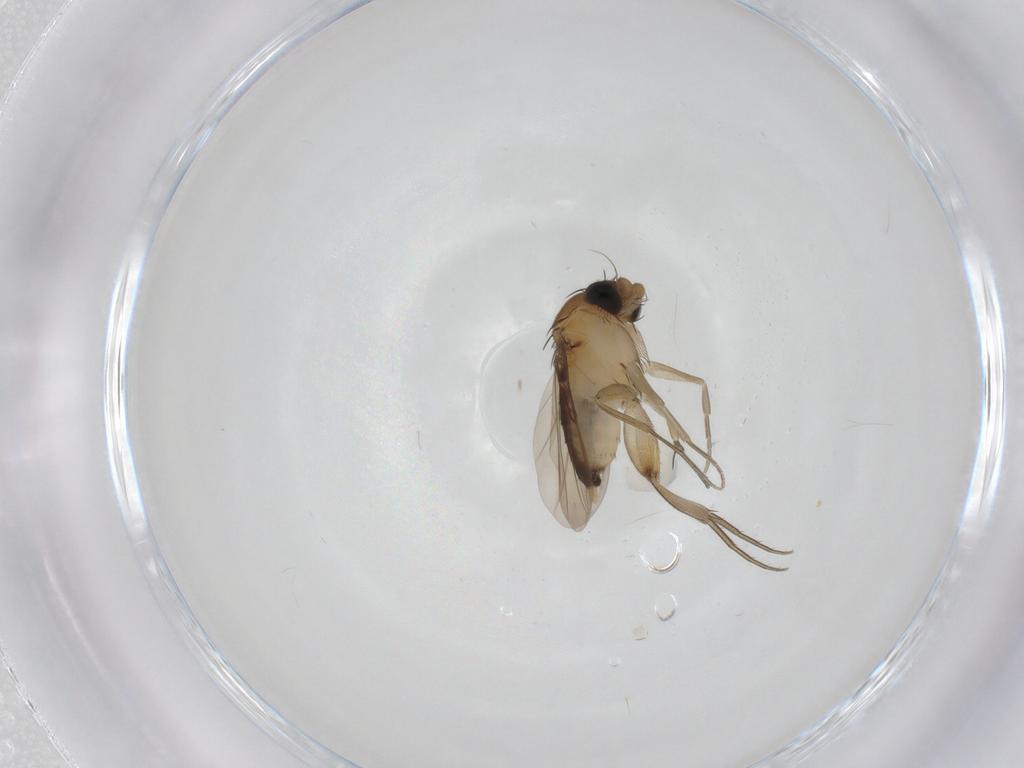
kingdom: Animalia
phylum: Arthropoda
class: Insecta
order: Diptera
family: Phoridae
